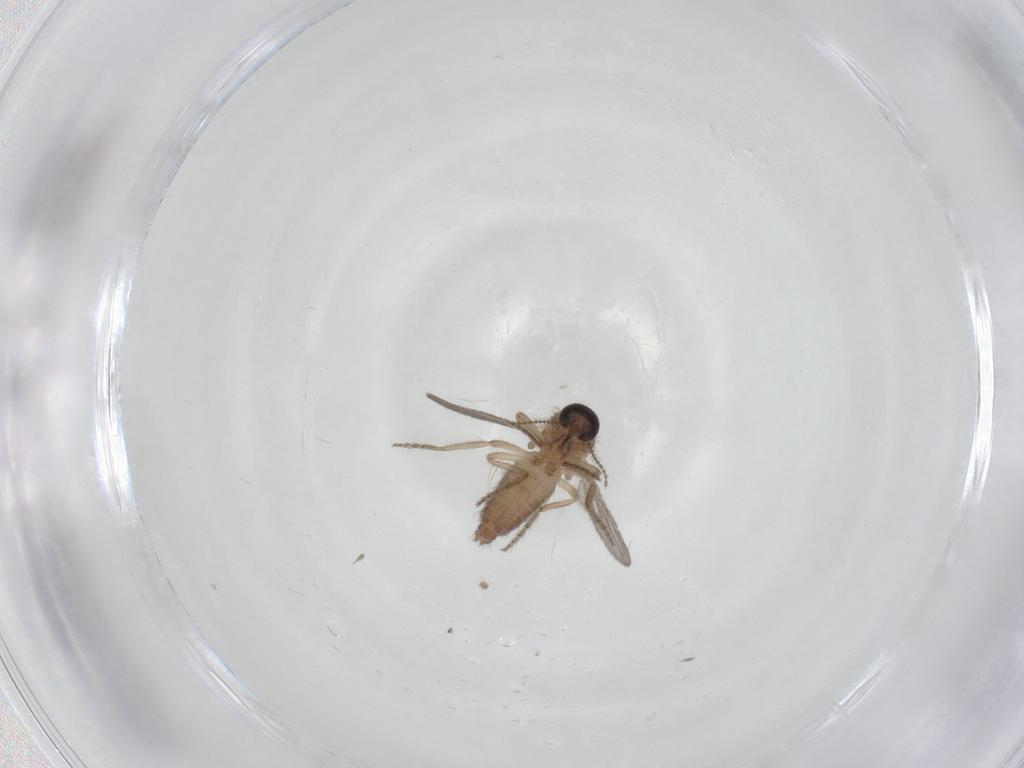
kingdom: Animalia
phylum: Arthropoda
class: Insecta
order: Diptera
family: Ceratopogonidae
